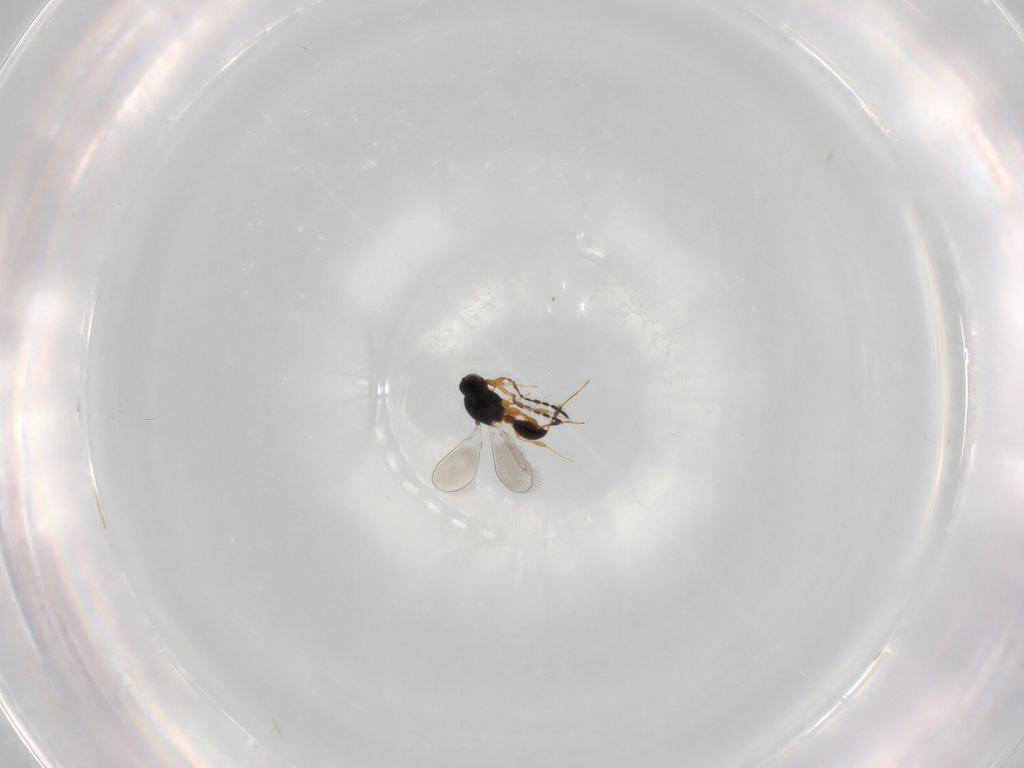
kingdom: Animalia
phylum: Arthropoda
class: Insecta
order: Hymenoptera
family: Platygastridae
